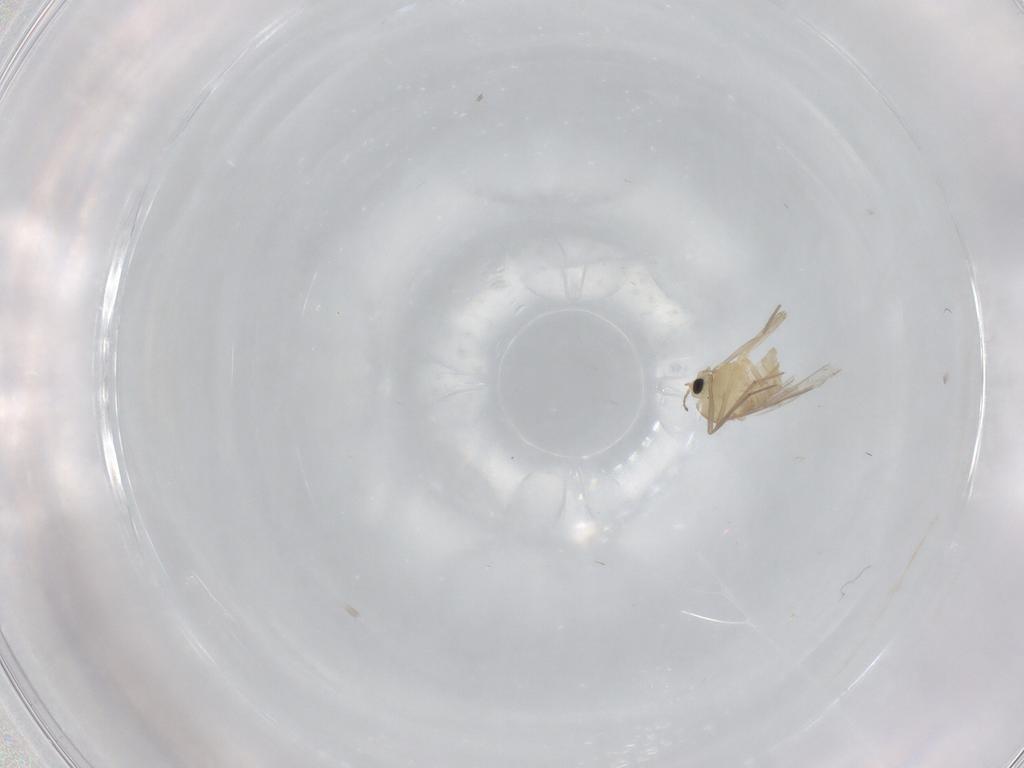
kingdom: Animalia
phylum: Arthropoda
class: Insecta
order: Diptera
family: Chironomidae
